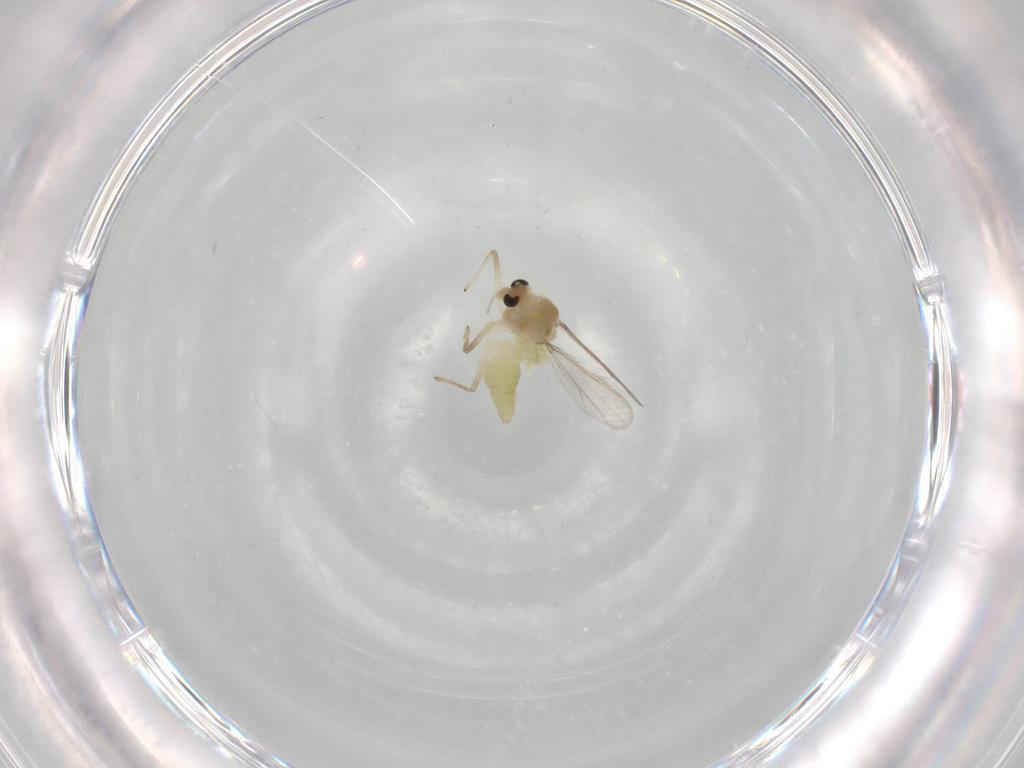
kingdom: Animalia
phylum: Arthropoda
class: Insecta
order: Diptera
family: Chironomidae
